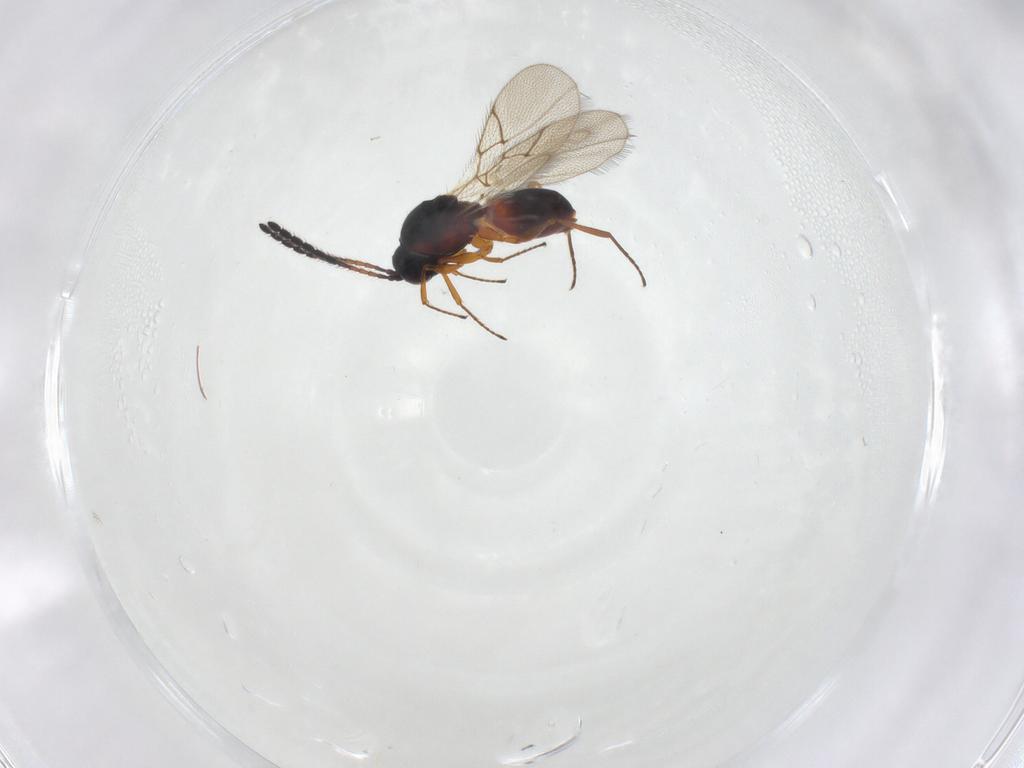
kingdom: Animalia
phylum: Arthropoda
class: Insecta
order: Hymenoptera
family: Figitidae
